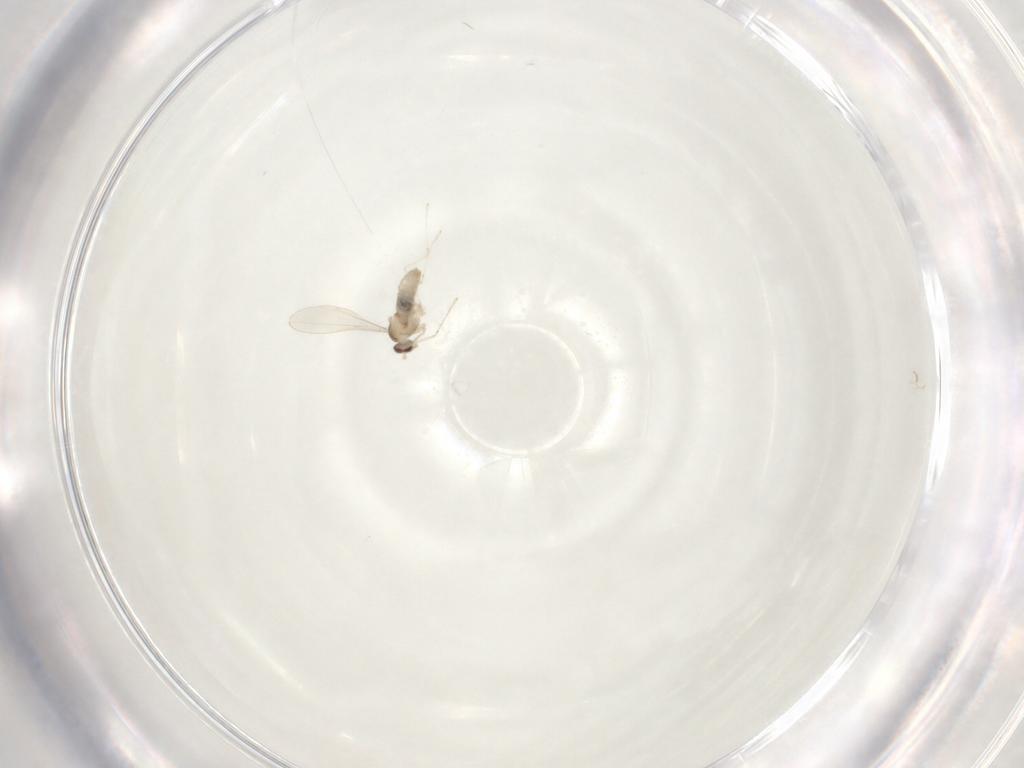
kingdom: Animalia
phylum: Arthropoda
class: Insecta
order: Diptera
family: Cecidomyiidae
